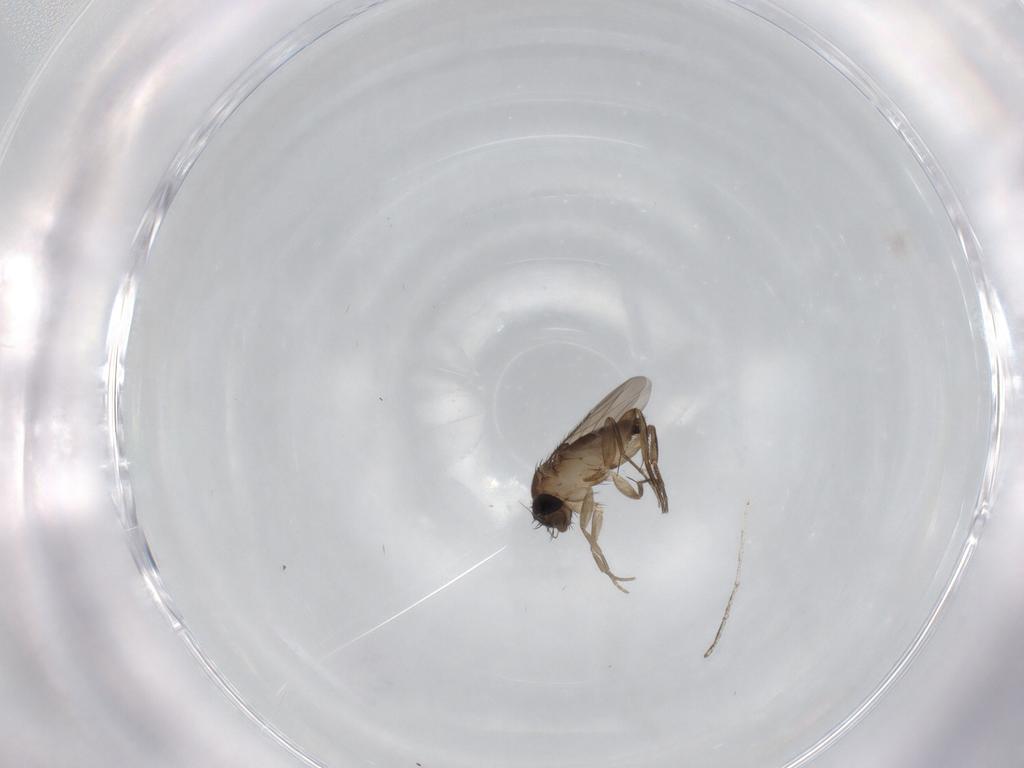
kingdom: Animalia
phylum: Arthropoda
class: Insecta
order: Diptera
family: Phoridae
